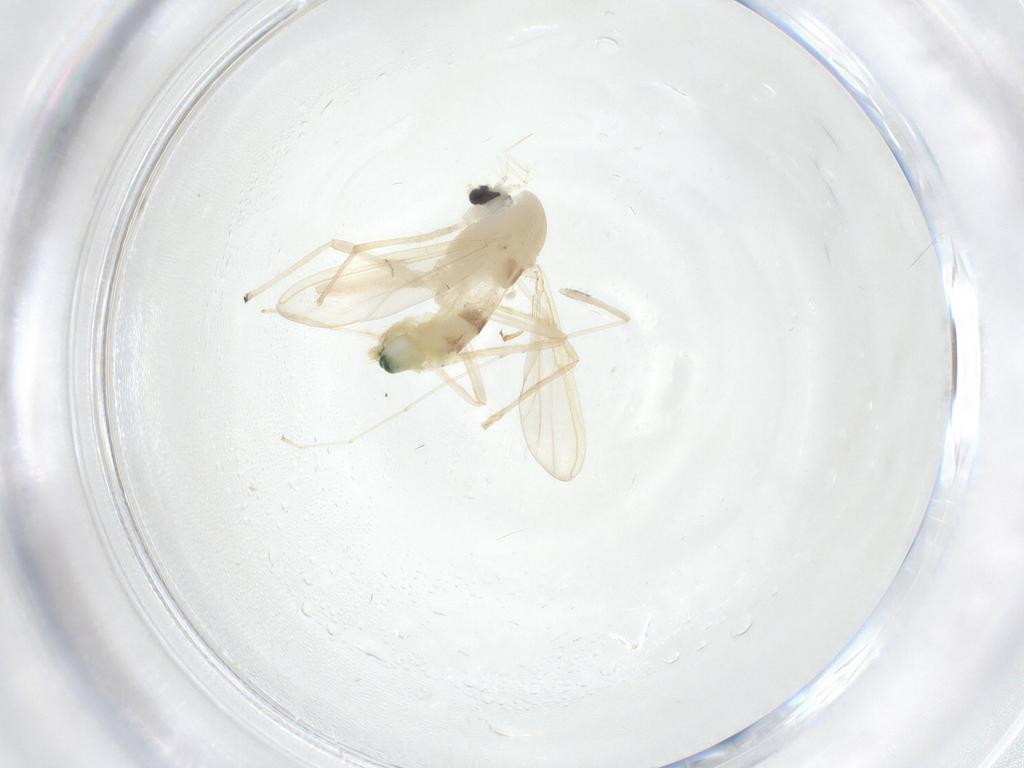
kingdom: Animalia
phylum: Arthropoda
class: Insecta
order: Diptera
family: Chironomidae
